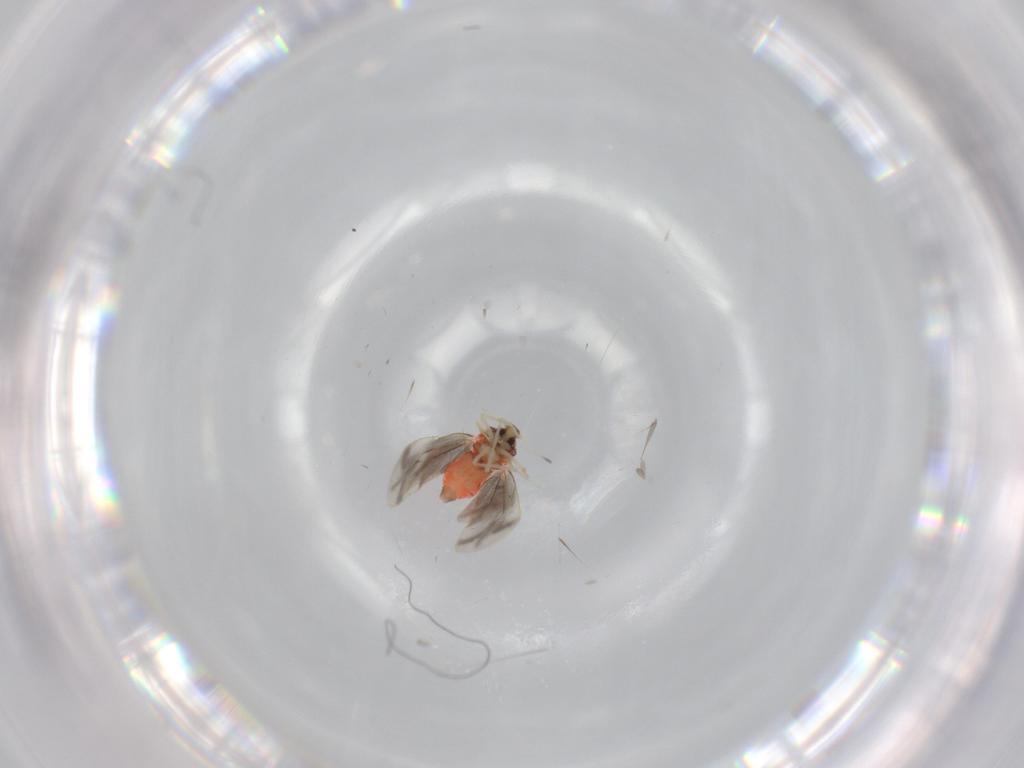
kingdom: Animalia
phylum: Arthropoda
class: Insecta
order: Hemiptera
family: Aleyrodidae
